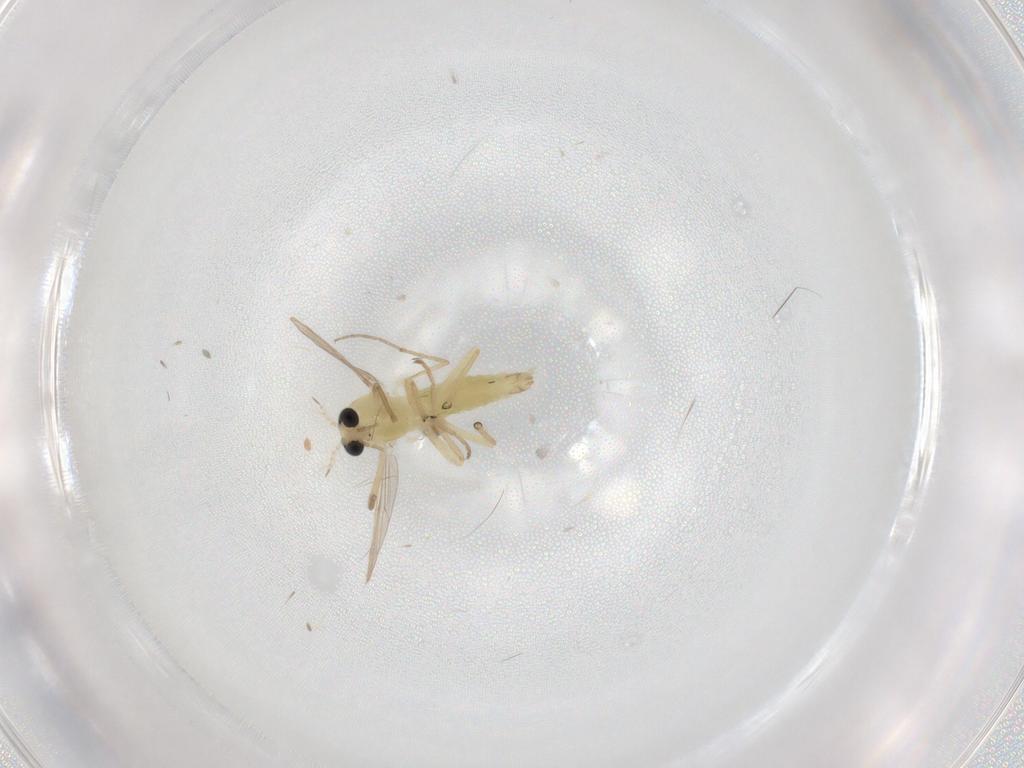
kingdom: Animalia
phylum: Arthropoda
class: Insecta
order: Diptera
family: Chironomidae
